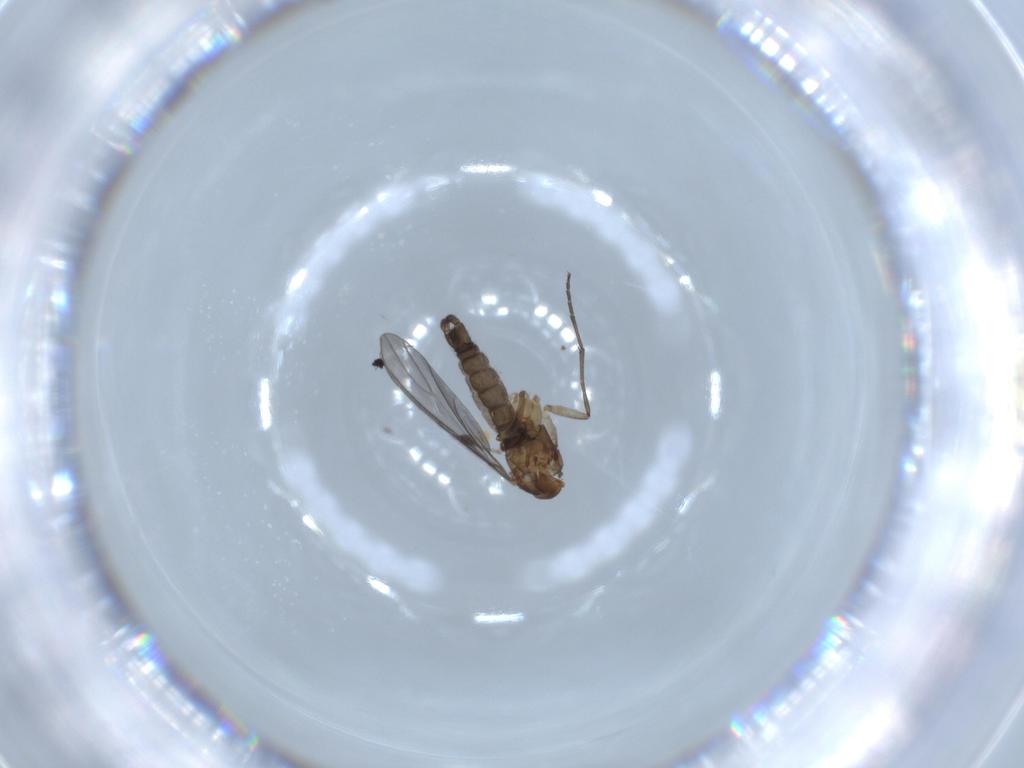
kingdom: Animalia
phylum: Arthropoda
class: Insecta
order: Diptera
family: Sciaridae
